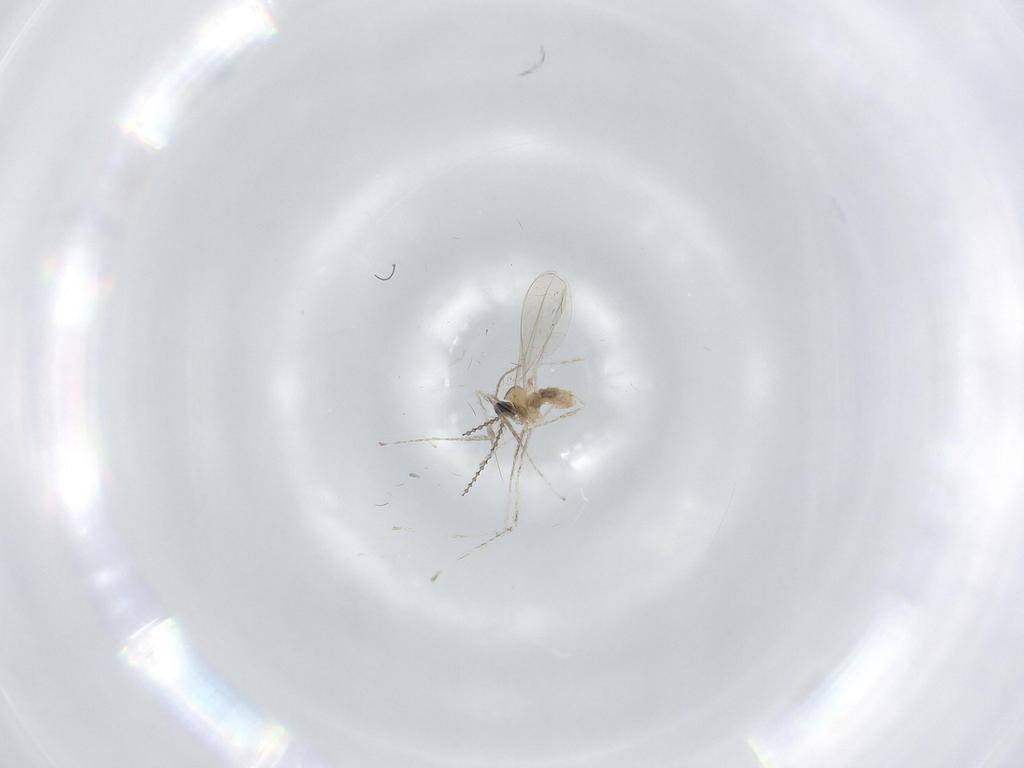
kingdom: Animalia
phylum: Arthropoda
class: Insecta
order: Diptera
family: Cecidomyiidae
